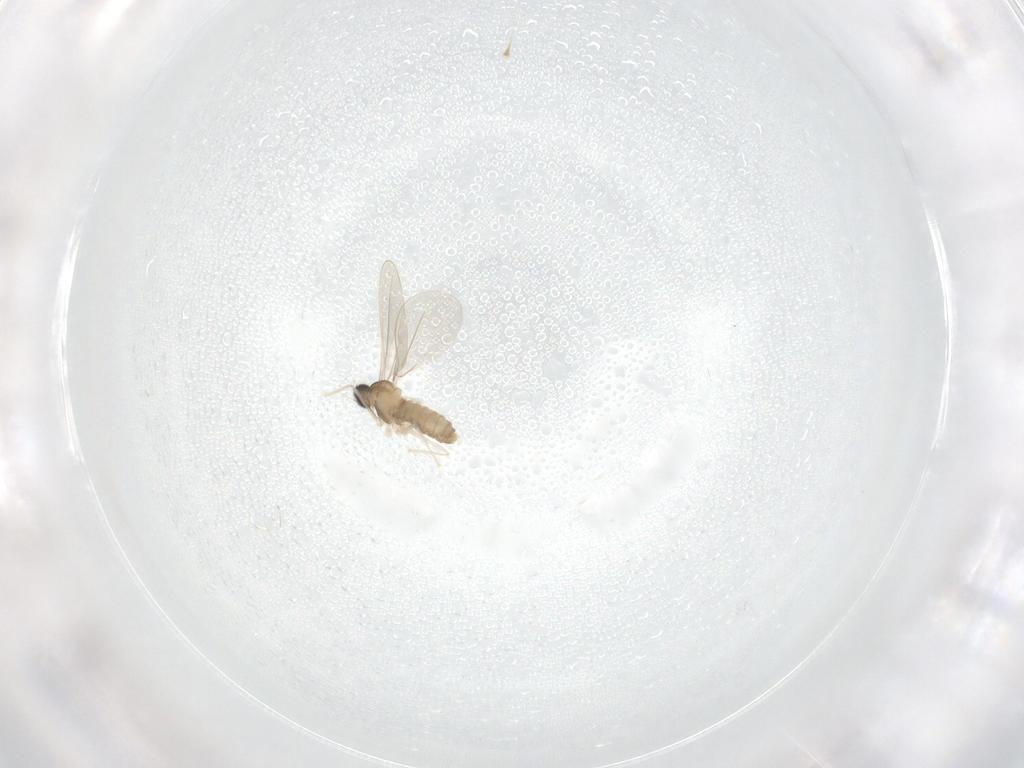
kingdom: Animalia
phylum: Arthropoda
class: Insecta
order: Diptera
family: Cecidomyiidae
